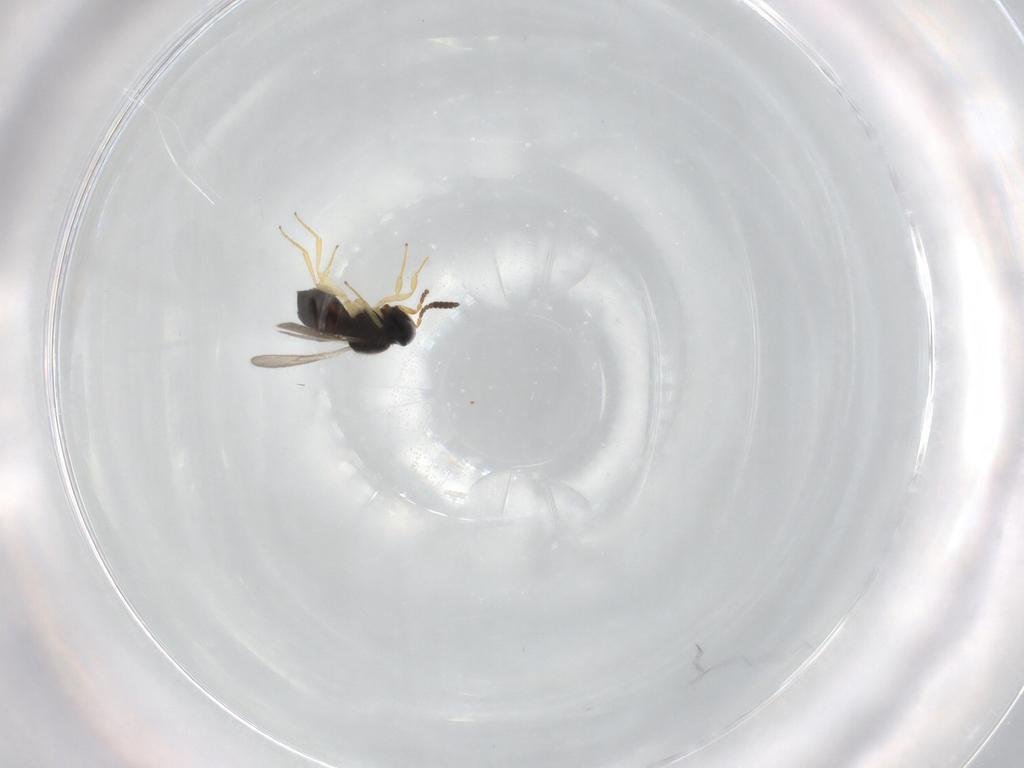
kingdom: Animalia
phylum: Arthropoda
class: Insecta
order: Hymenoptera
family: Scelionidae
